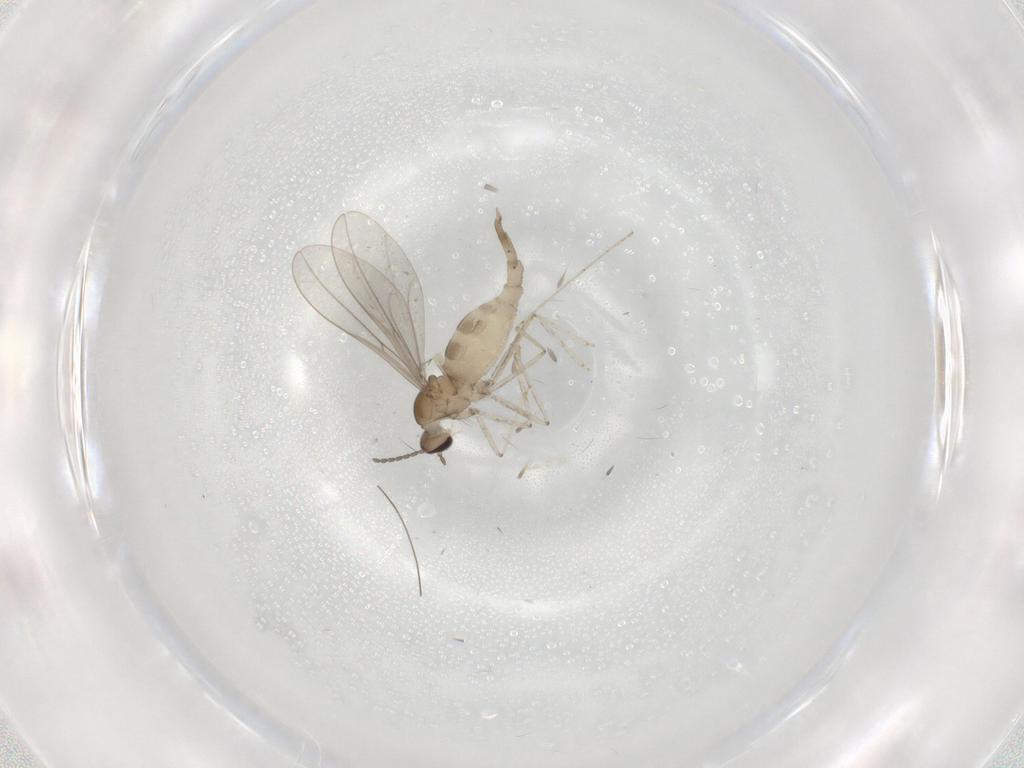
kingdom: Animalia
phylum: Arthropoda
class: Insecta
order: Diptera
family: Cecidomyiidae
